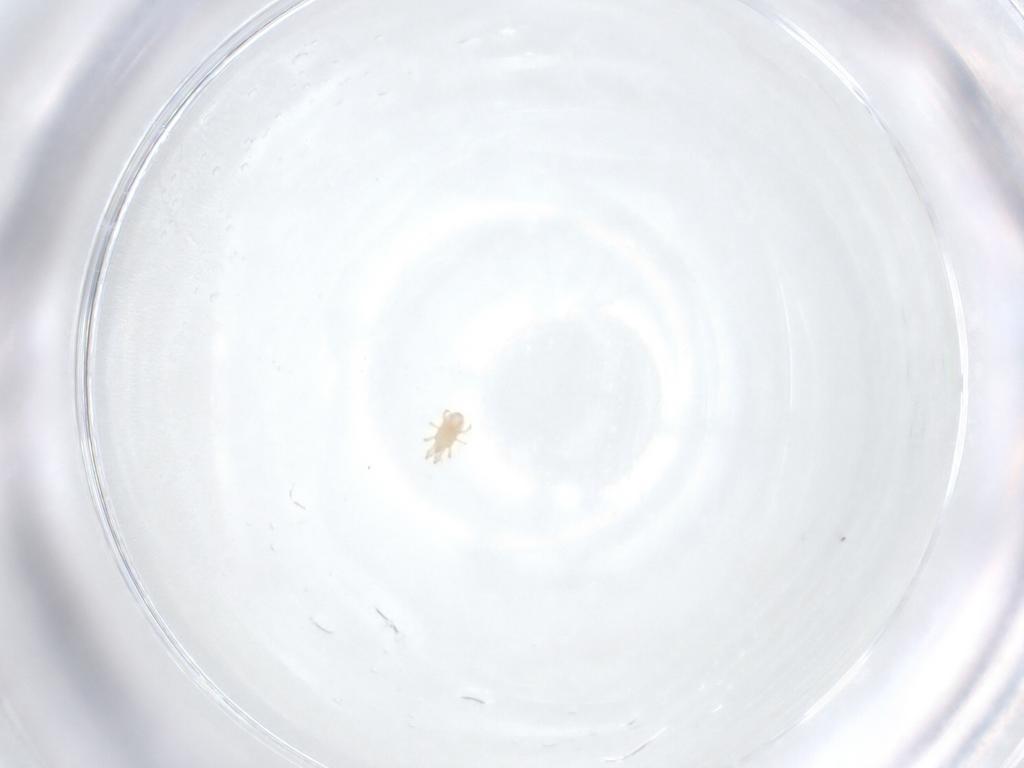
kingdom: Animalia
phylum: Arthropoda
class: Arachnida
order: Mesostigmata
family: Ascidae
